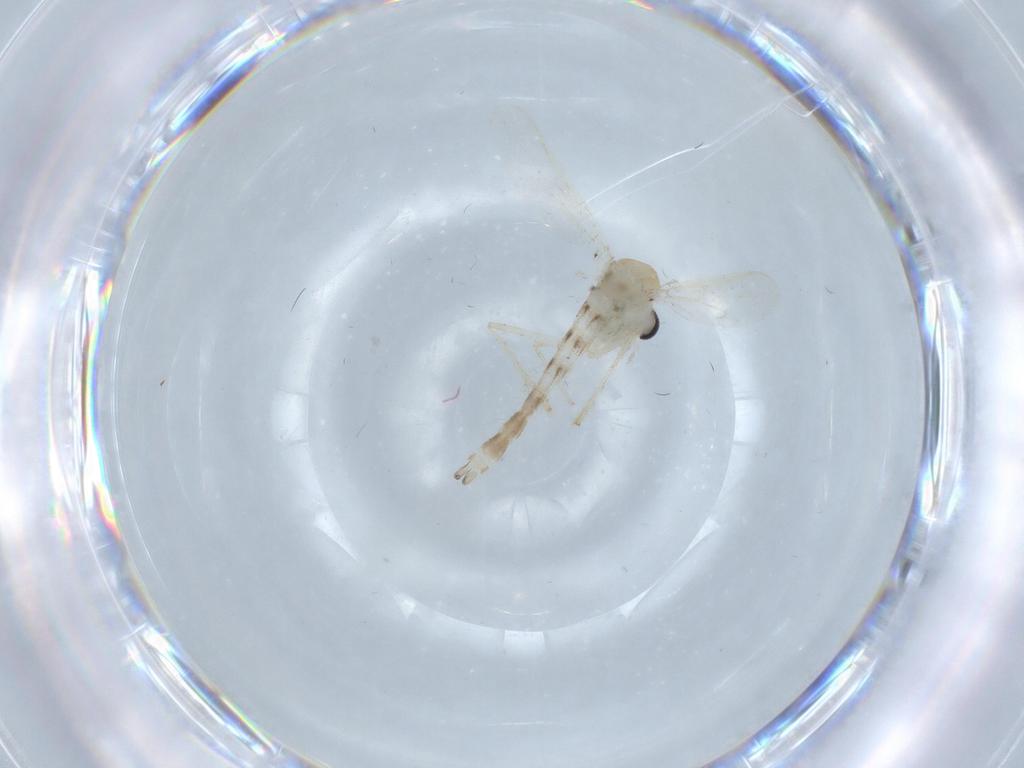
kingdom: Animalia
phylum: Arthropoda
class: Insecta
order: Diptera
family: Chironomidae
